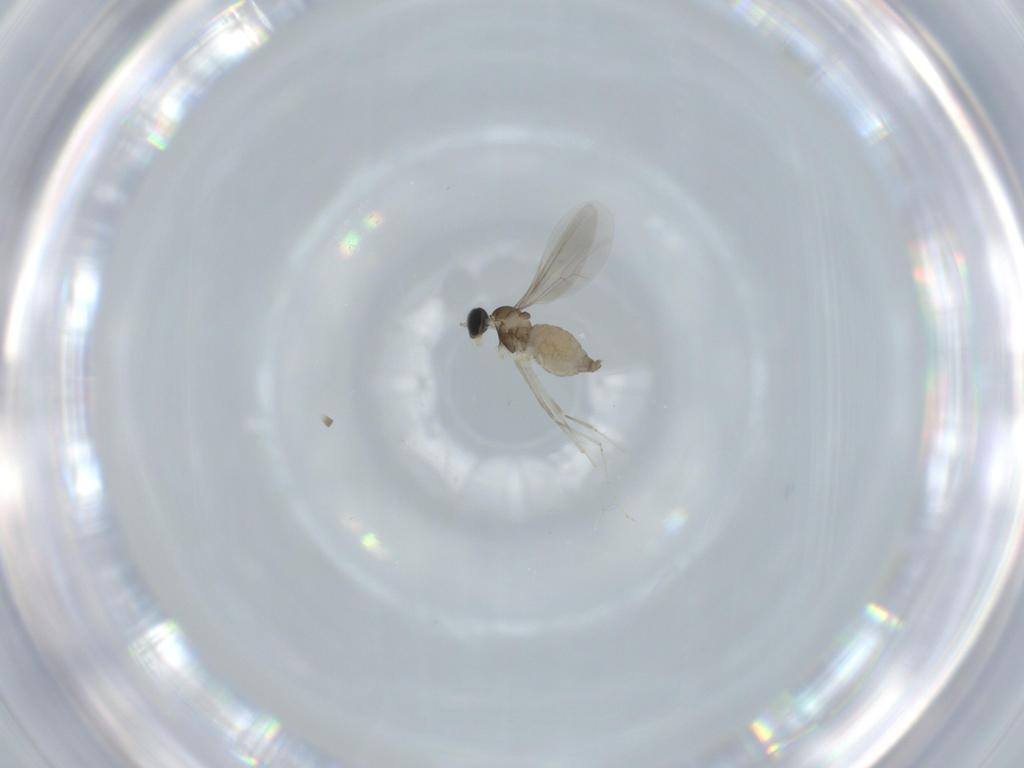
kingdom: Animalia
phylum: Arthropoda
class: Insecta
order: Diptera
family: Cecidomyiidae
